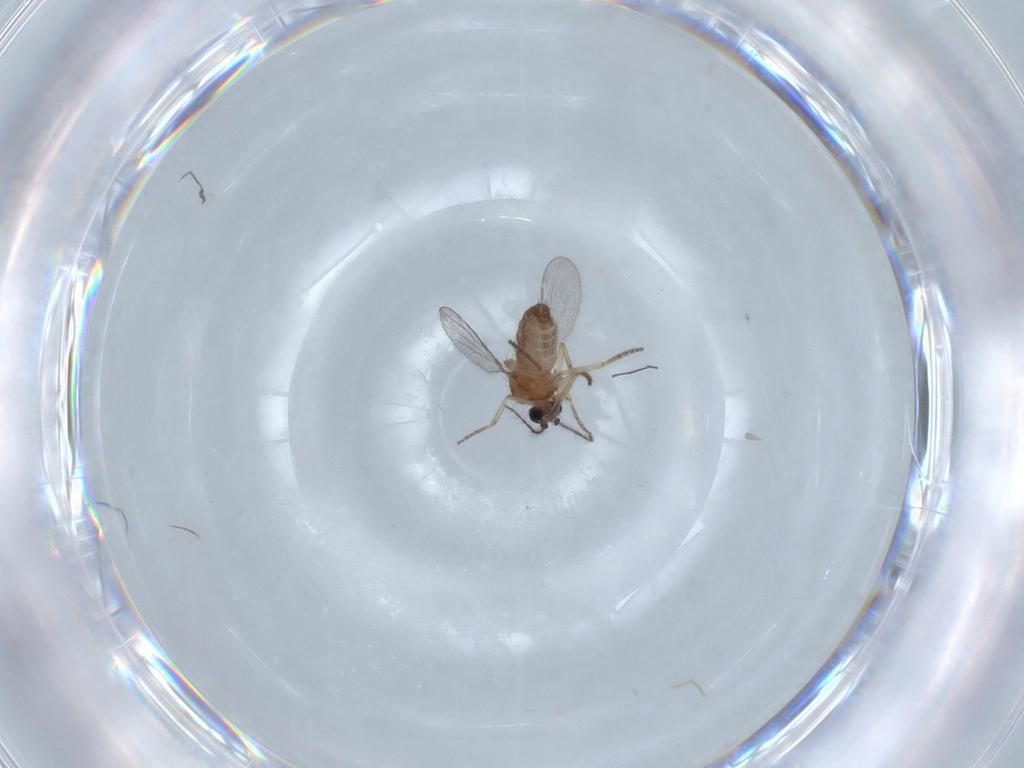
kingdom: Animalia
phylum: Arthropoda
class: Insecta
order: Diptera
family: Ceratopogonidae
